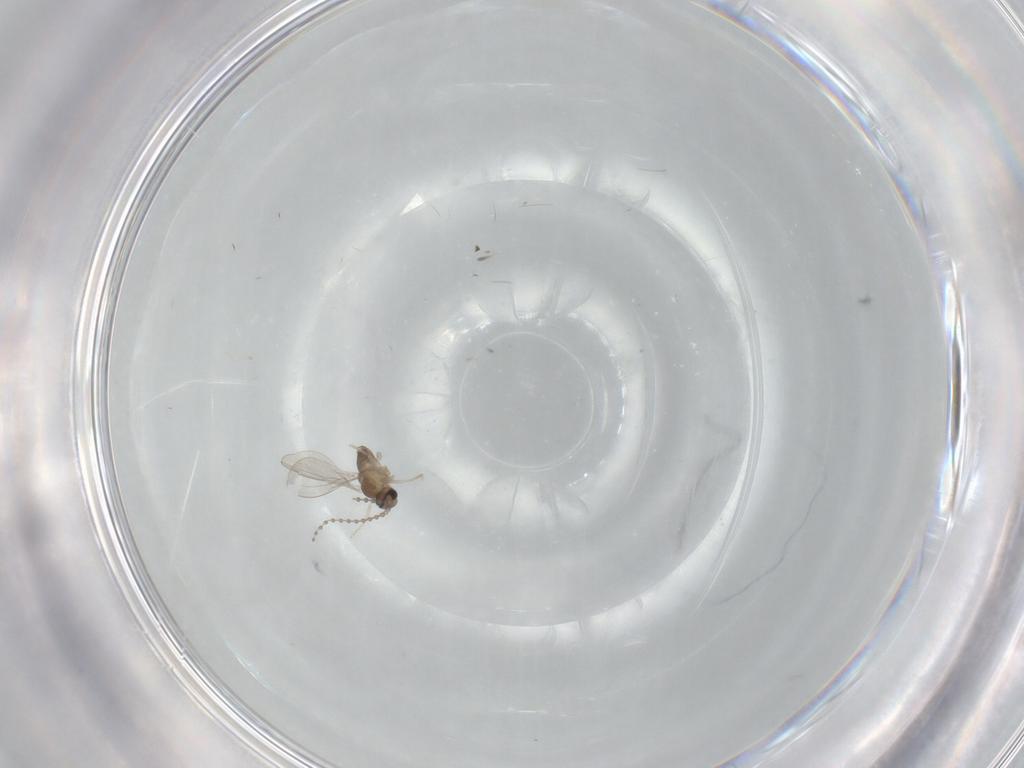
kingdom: Animalia
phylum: Arthropoda
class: Insecta
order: Diptera
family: Cecidomyiidae
